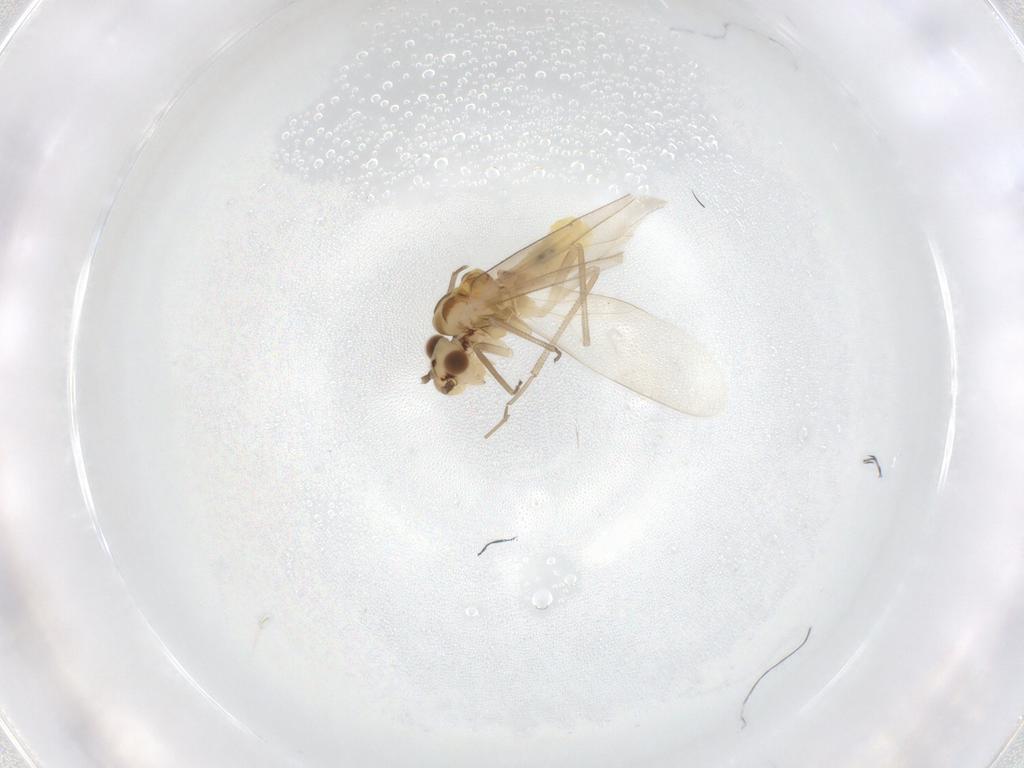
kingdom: Animalia
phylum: Arthropoda
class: Insecta
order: Psocodea
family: Caeciliusidae
